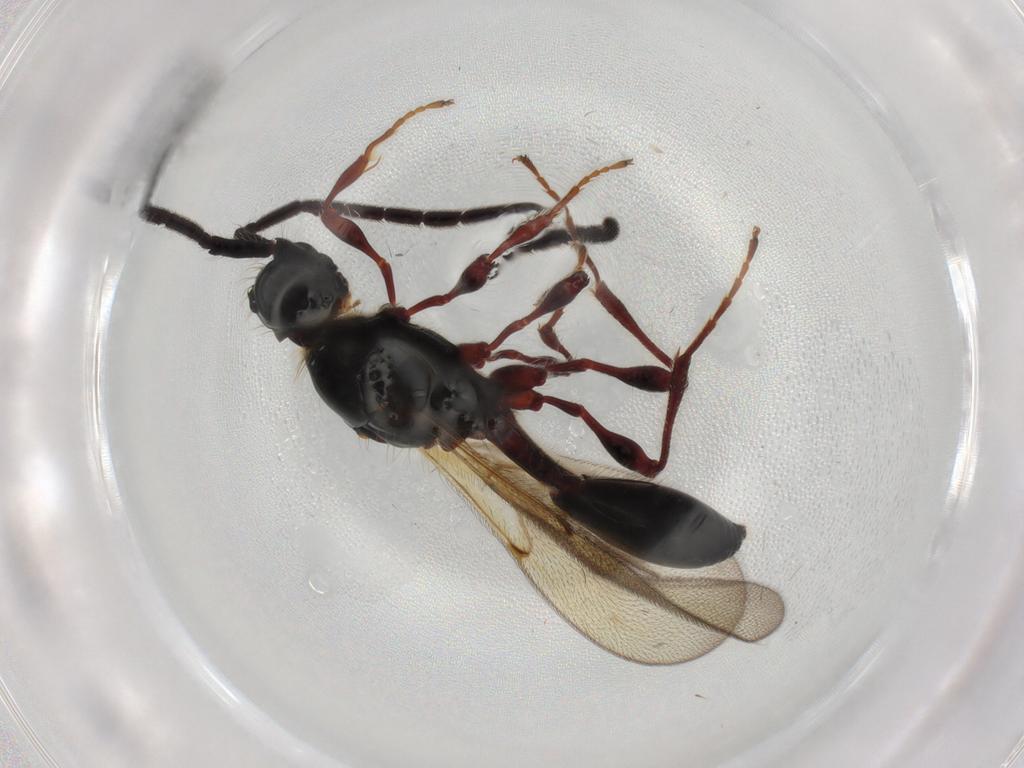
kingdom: Animalia
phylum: Arthropoda
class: Insecta
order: Hymenoptera
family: Diapriidae
